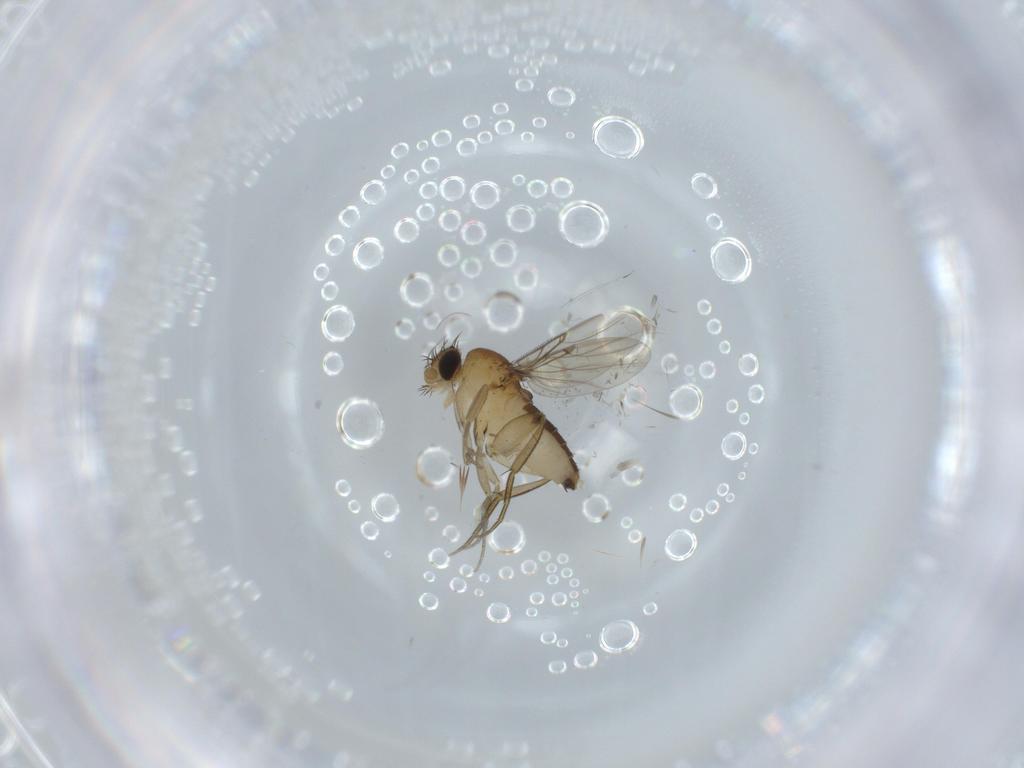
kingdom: Animalia
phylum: Arthropoda
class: Insecta
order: Diptera
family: Phoridae
